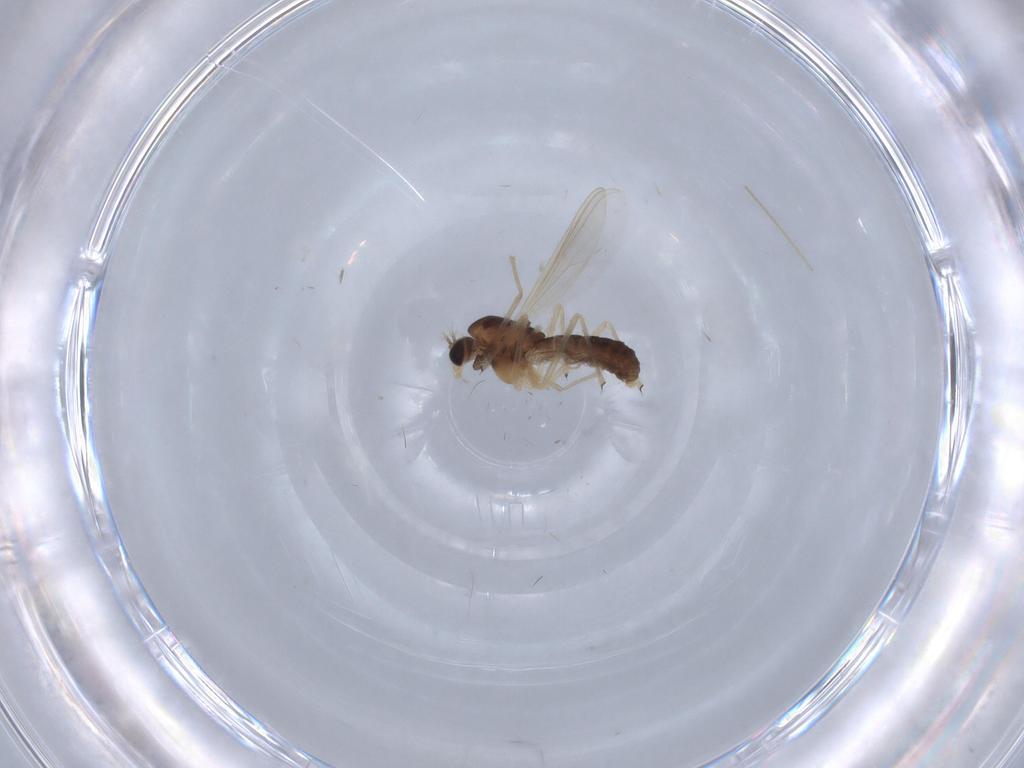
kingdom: Animalia
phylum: Arthropoda
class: Insecta
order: Diptera
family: Chironomidae
